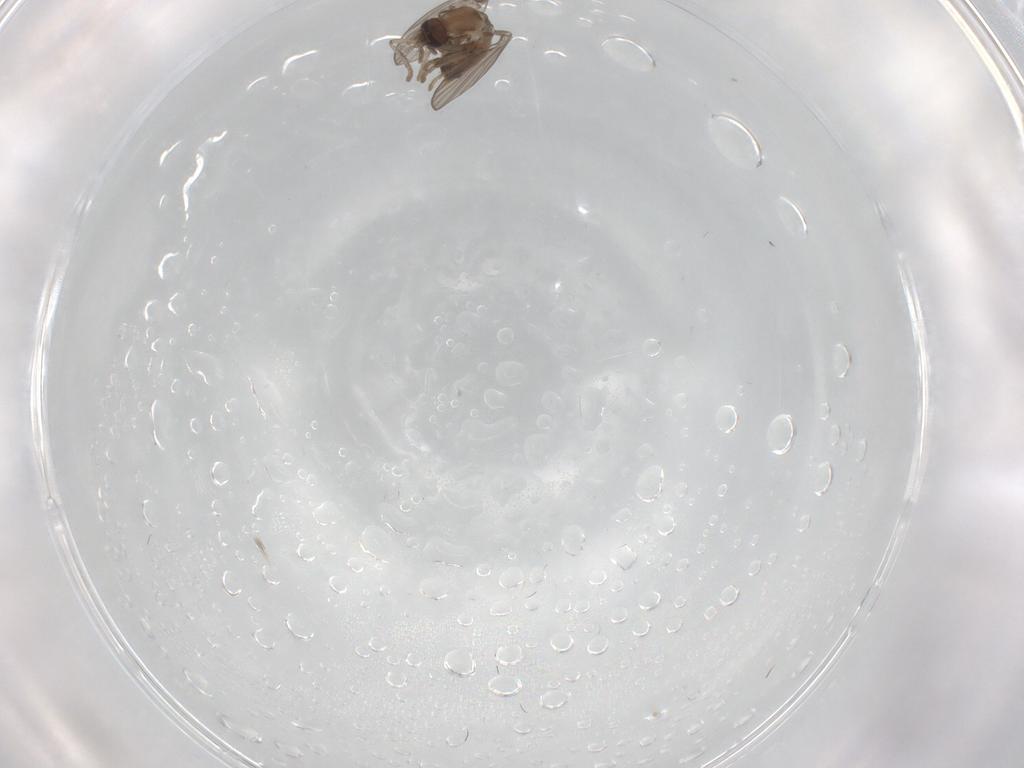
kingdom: Animalia
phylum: Arthropoda
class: Insecta
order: Diptera
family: Psychodidae
